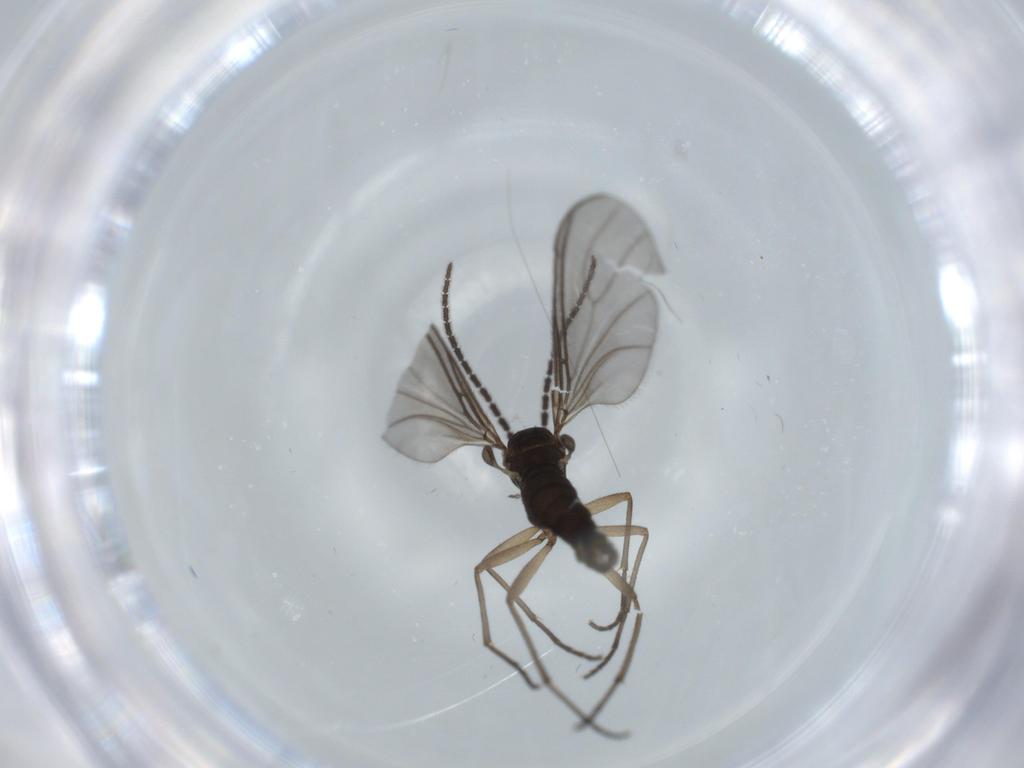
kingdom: Animalia
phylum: Arthropoda
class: Insecta
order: Diptera
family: Sciaridae
